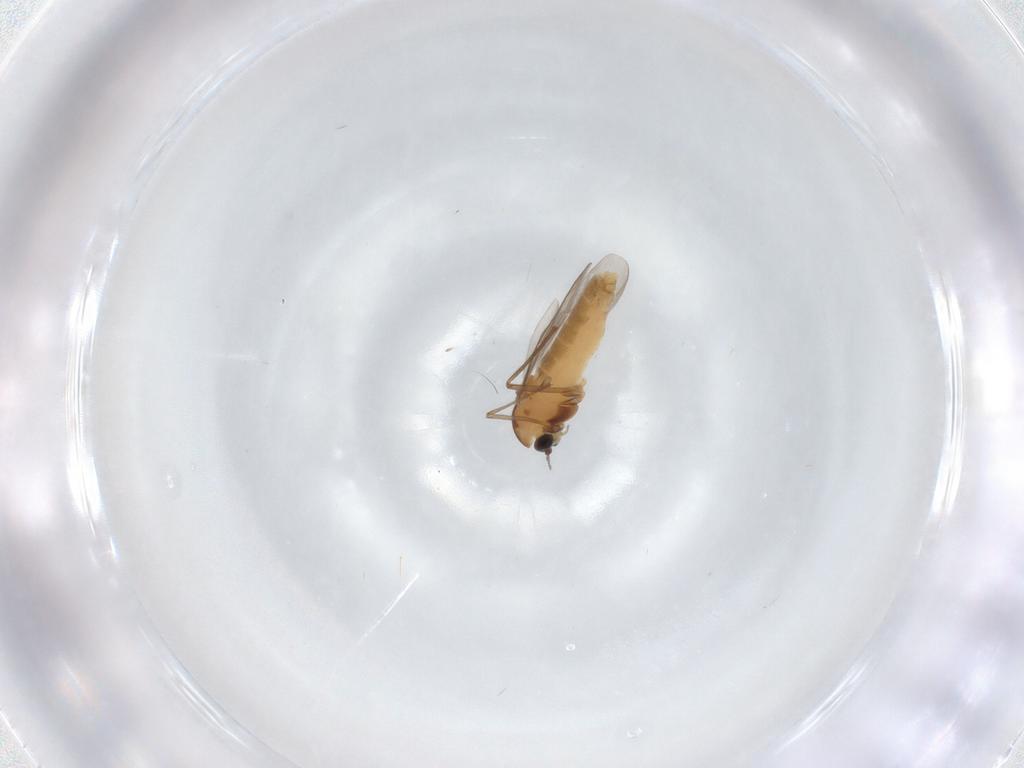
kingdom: Animalia
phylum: Arthropoda
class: Insecta
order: Diptera
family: Chironomidae
